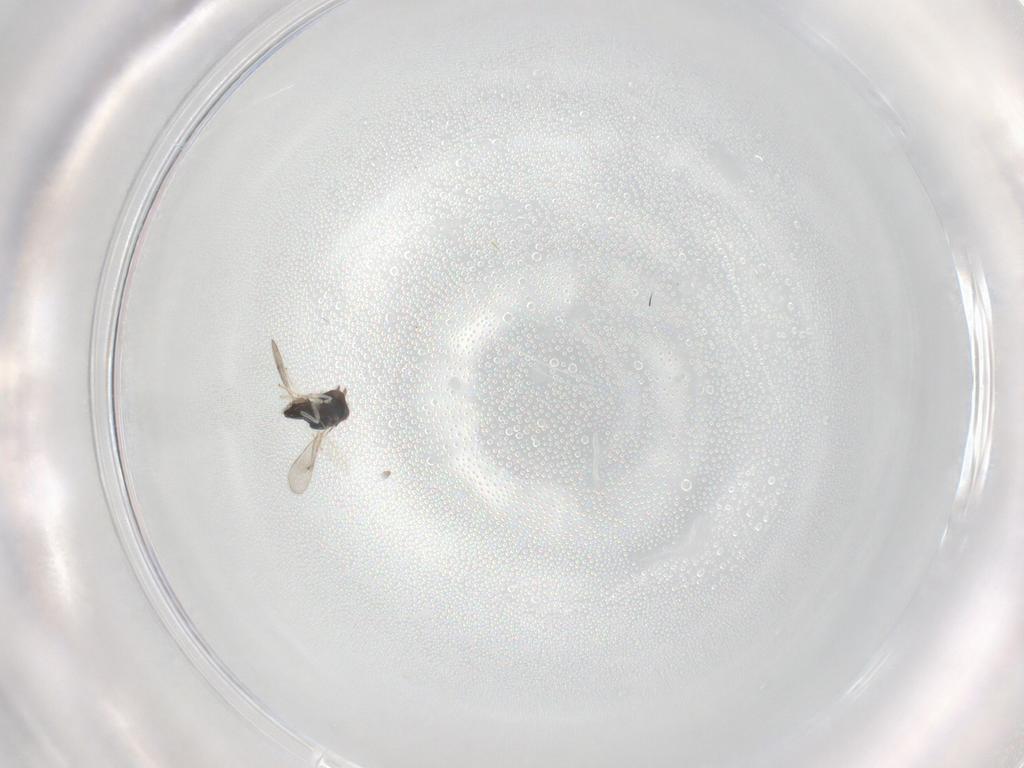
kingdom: Animalia
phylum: Arthropoda
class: Insecta
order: Hymenoptera
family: Eulophidae
